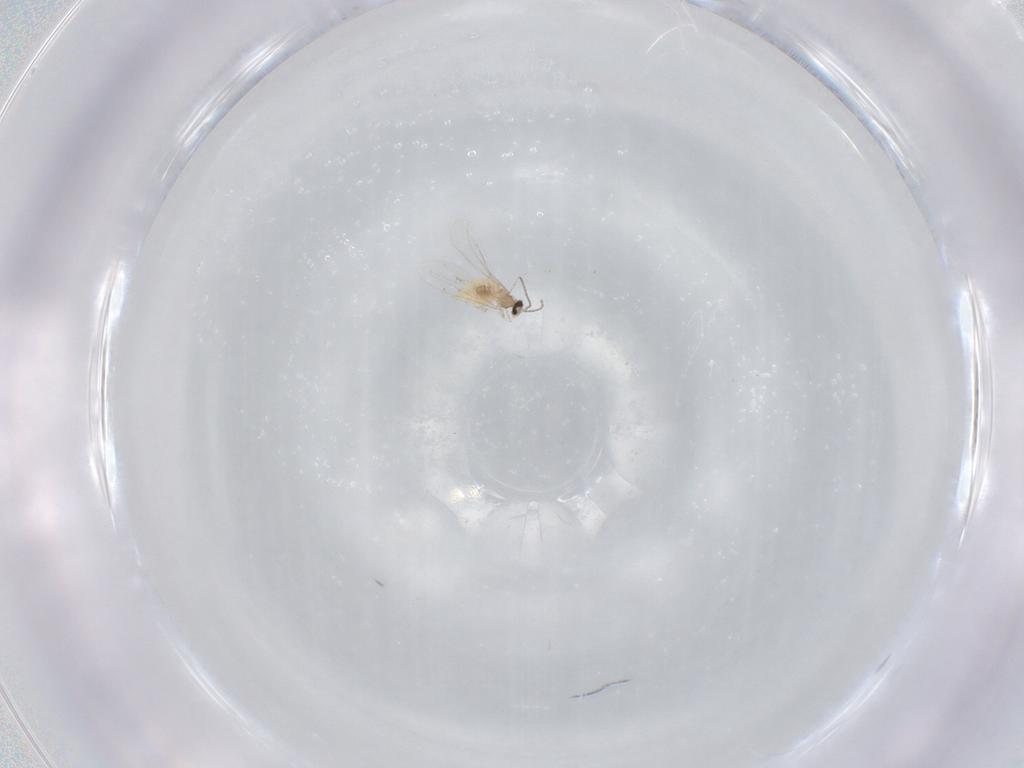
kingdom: Animalia
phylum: Arthropoda
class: Insecta
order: Diptera
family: Cecidomyiidae
